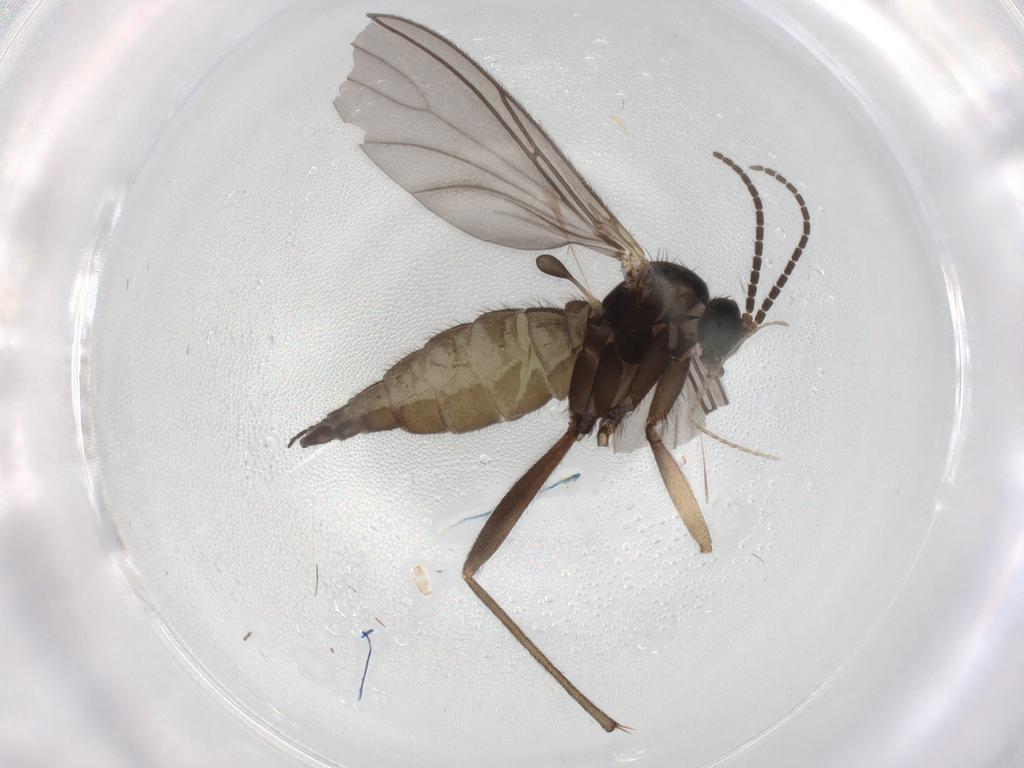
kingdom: Animalia
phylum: Arthropoda
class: Insecta
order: Diptera
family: Sciaridae
